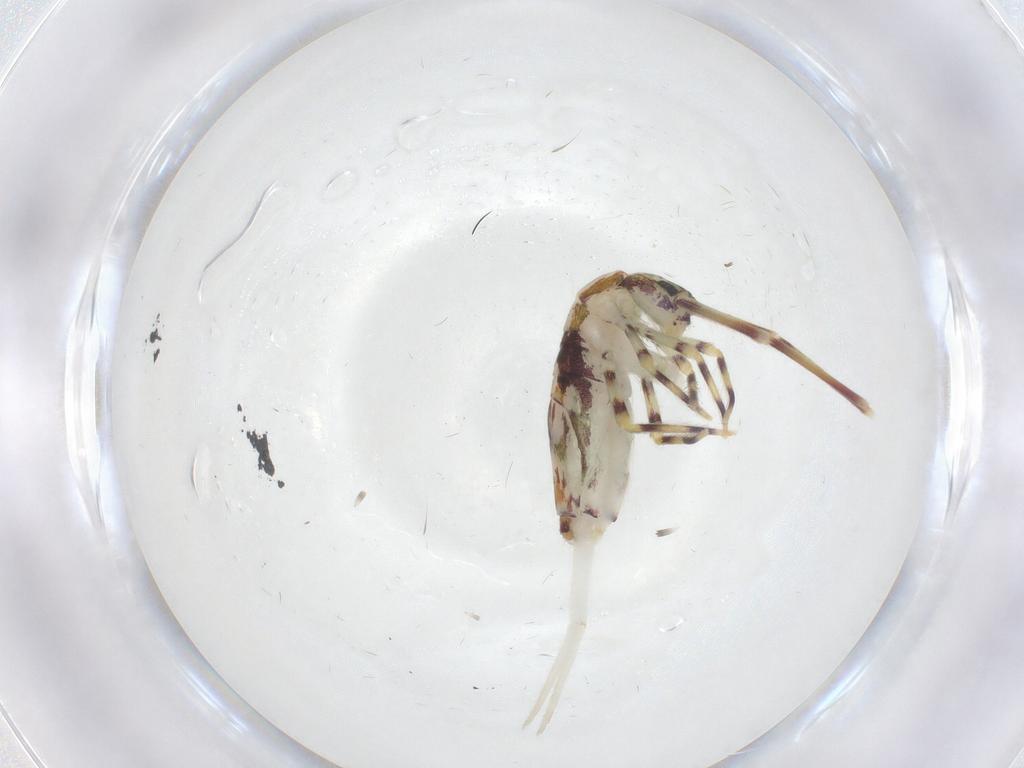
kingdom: Animalia
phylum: Arthropoda
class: Collembola
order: Entomobryomorpha
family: Entomobryidae
